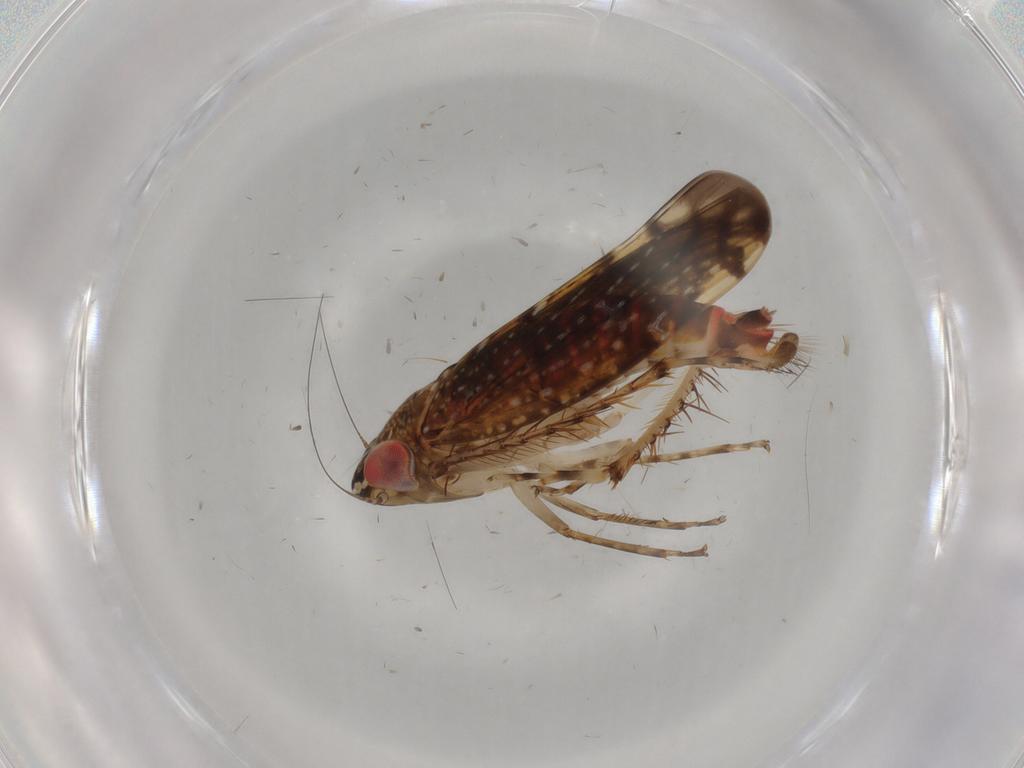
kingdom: Animalia
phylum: Arthropoda
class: Insecta
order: Hemiptera
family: Cicadellidae
